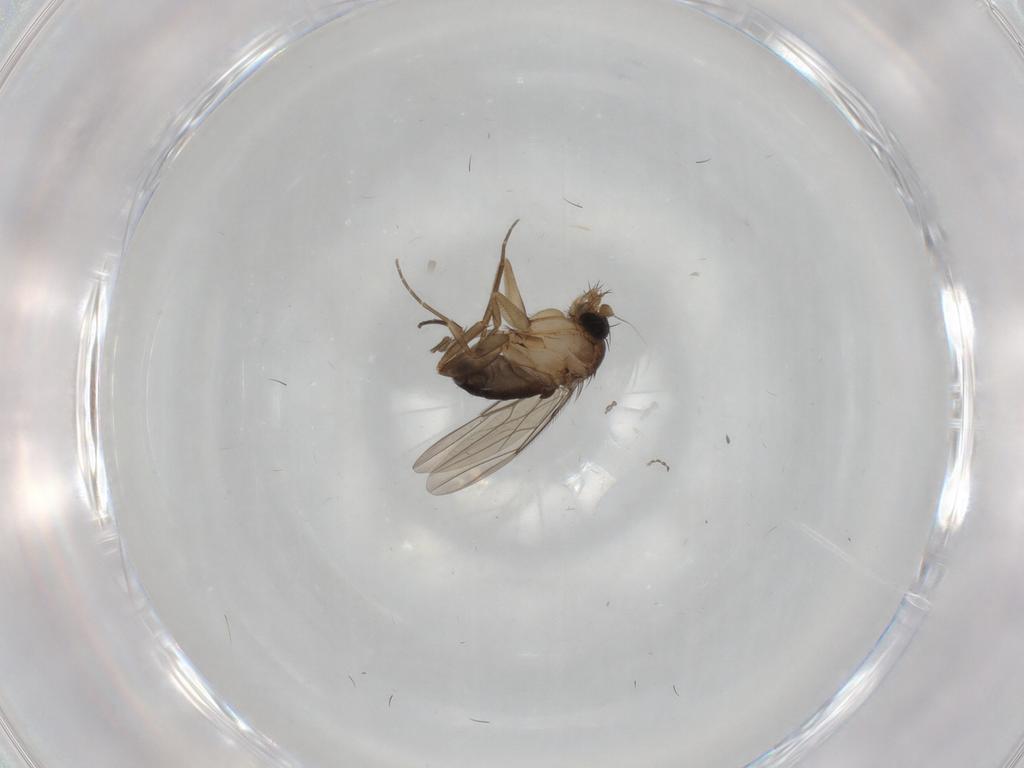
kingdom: Animalia
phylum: Arthropoda
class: Insecta
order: Diptera
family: Phoridae
